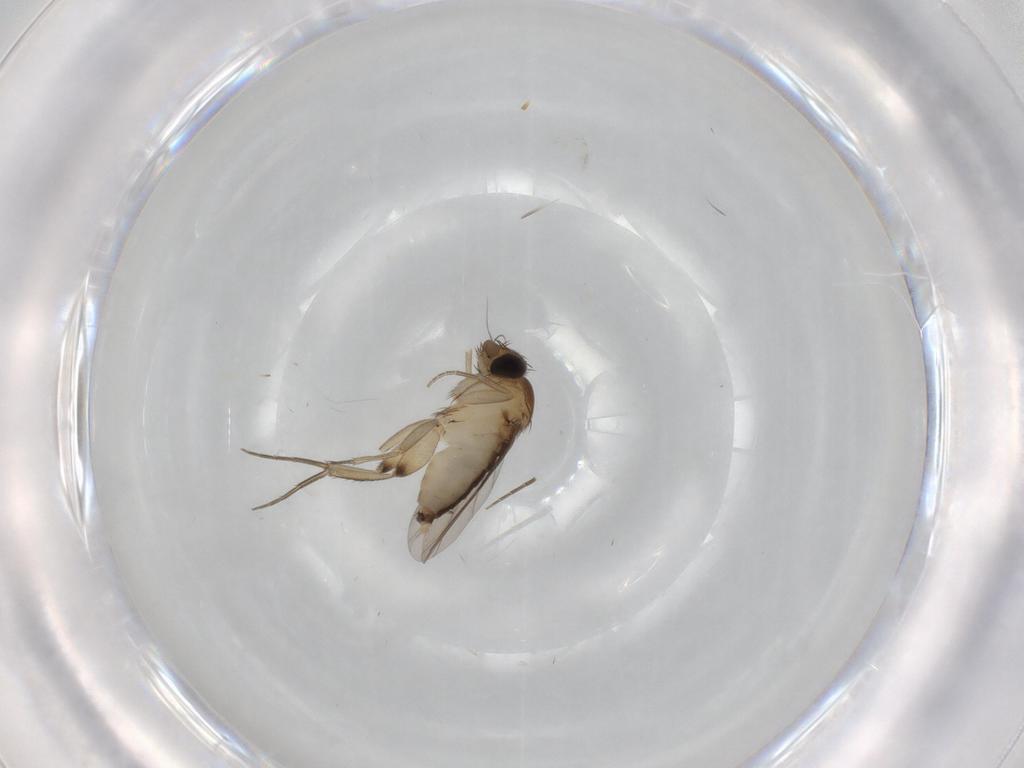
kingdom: Animalia
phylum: Arthropoda
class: Insecta
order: Diptera
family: Phoridae
